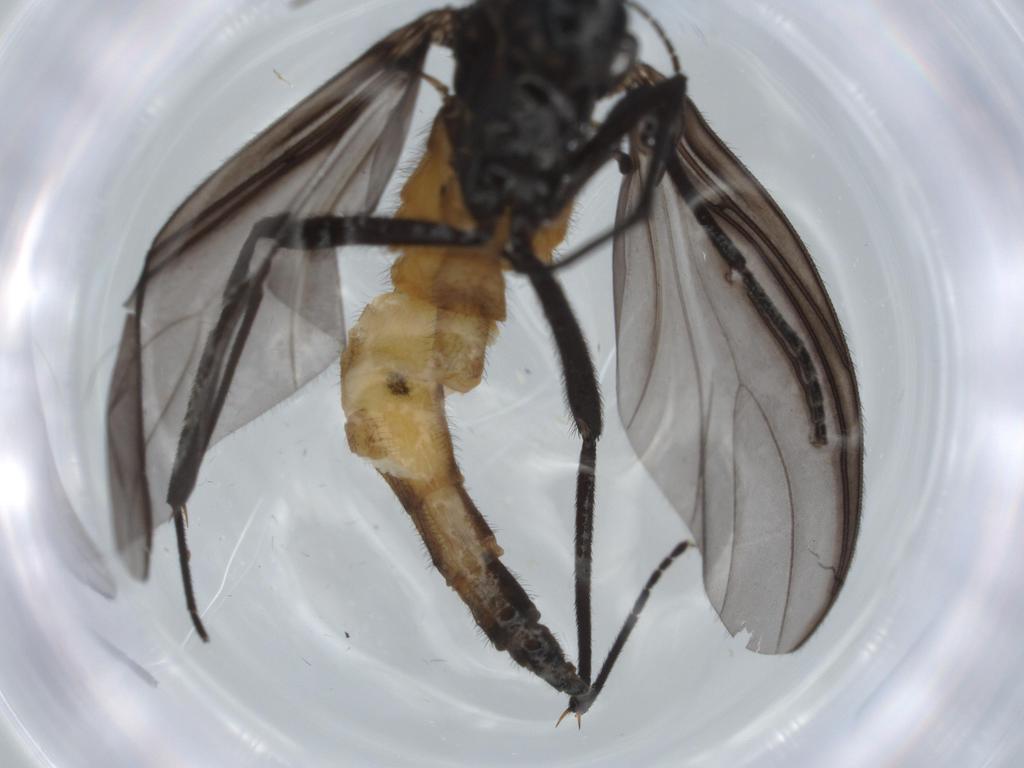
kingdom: Animalia
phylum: Arthropoda
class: Insecta
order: Diptera
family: Sciaridae
